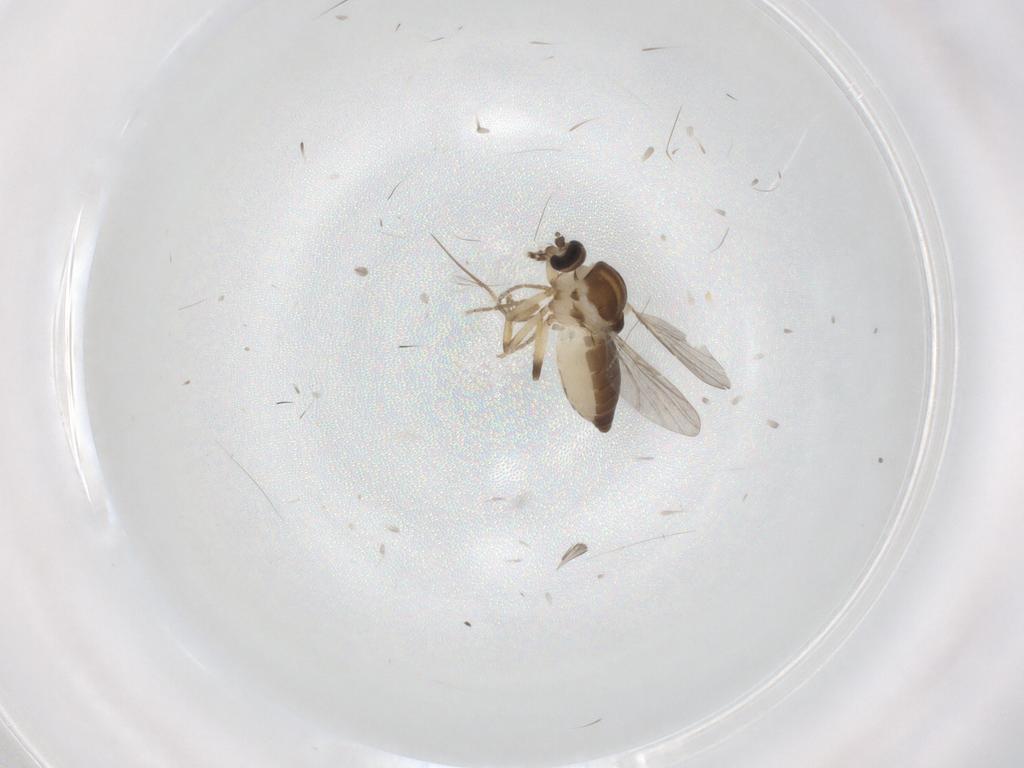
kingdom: Animalia
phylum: Arthropoda
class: Insecta
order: Diptera
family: Ceratopogonidae
